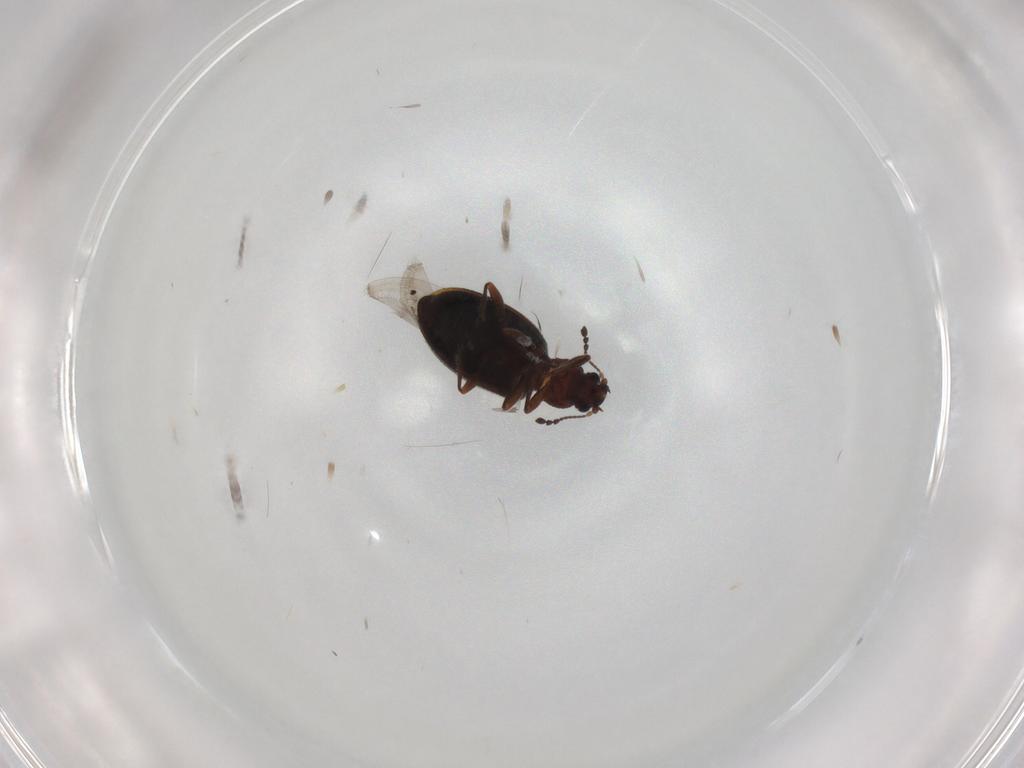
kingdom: Animalia
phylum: Arthropoda
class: Insecta
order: Coleoptera
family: Latridiidae
